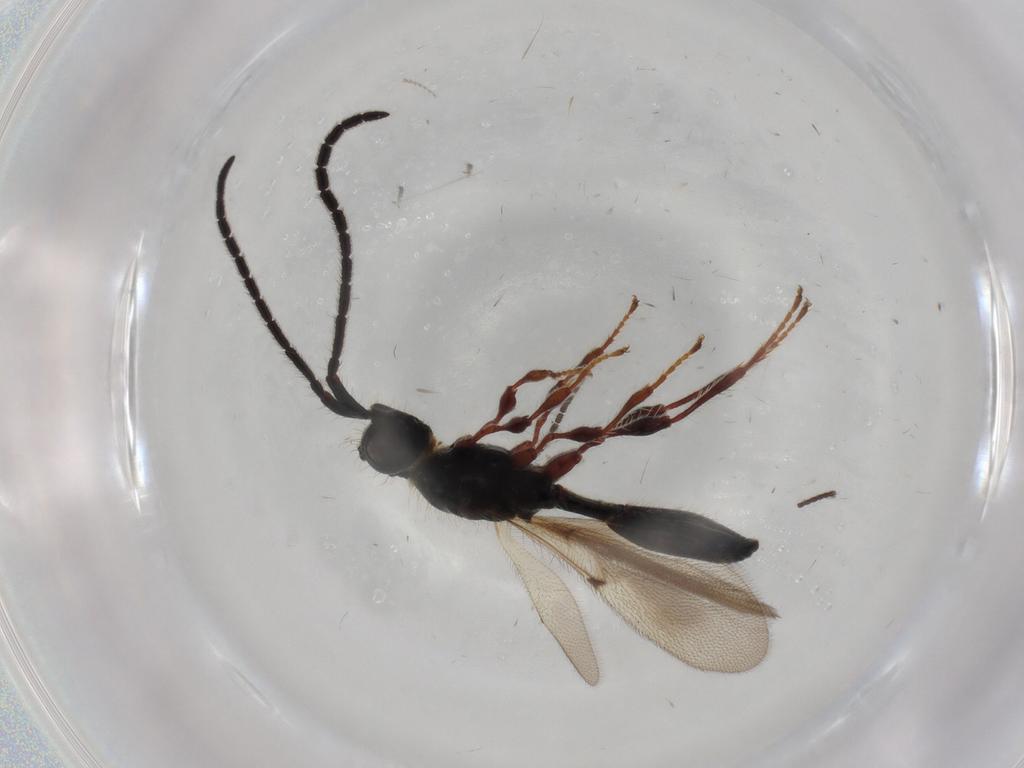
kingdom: Animalia
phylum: Arthropoda
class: Insecta
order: Hymenoptera
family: Diapriidae
